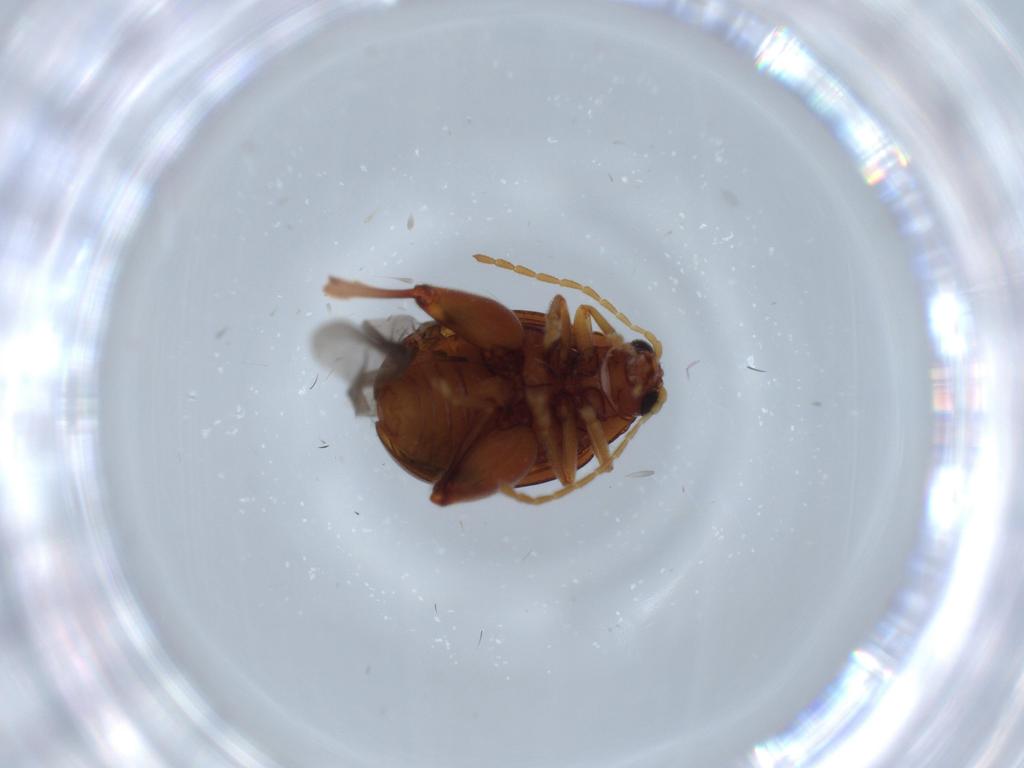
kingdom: Animalia
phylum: Arthropoda
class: Insecta
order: Coleoptera
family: Chrysomelidae
